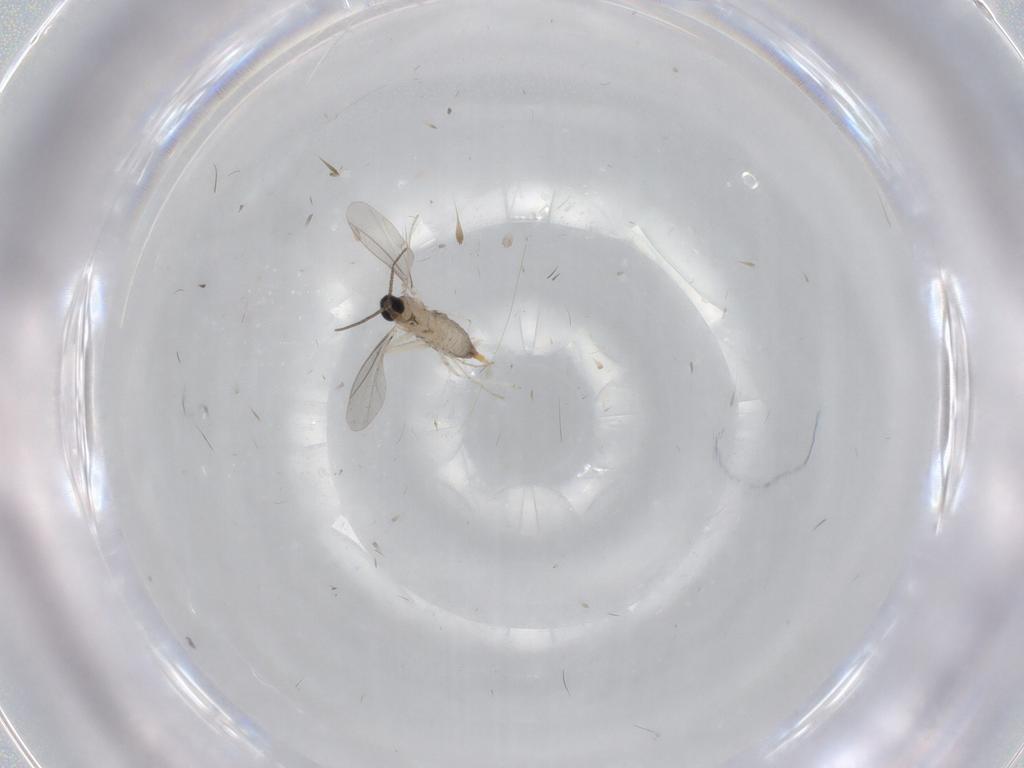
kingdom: Animalia
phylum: Arthropoda
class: Insecta
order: Diptera
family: Cecidomyiidae
